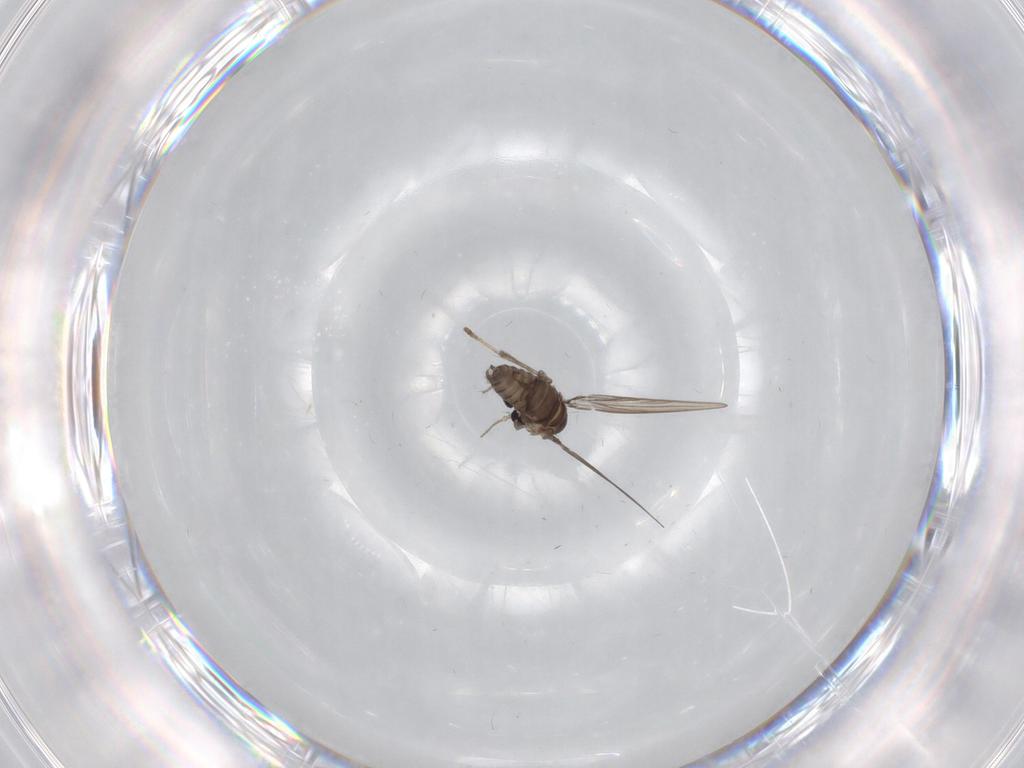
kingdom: Animalia
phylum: Arthropoda
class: Insecta
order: Diptera
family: Psychodidae
